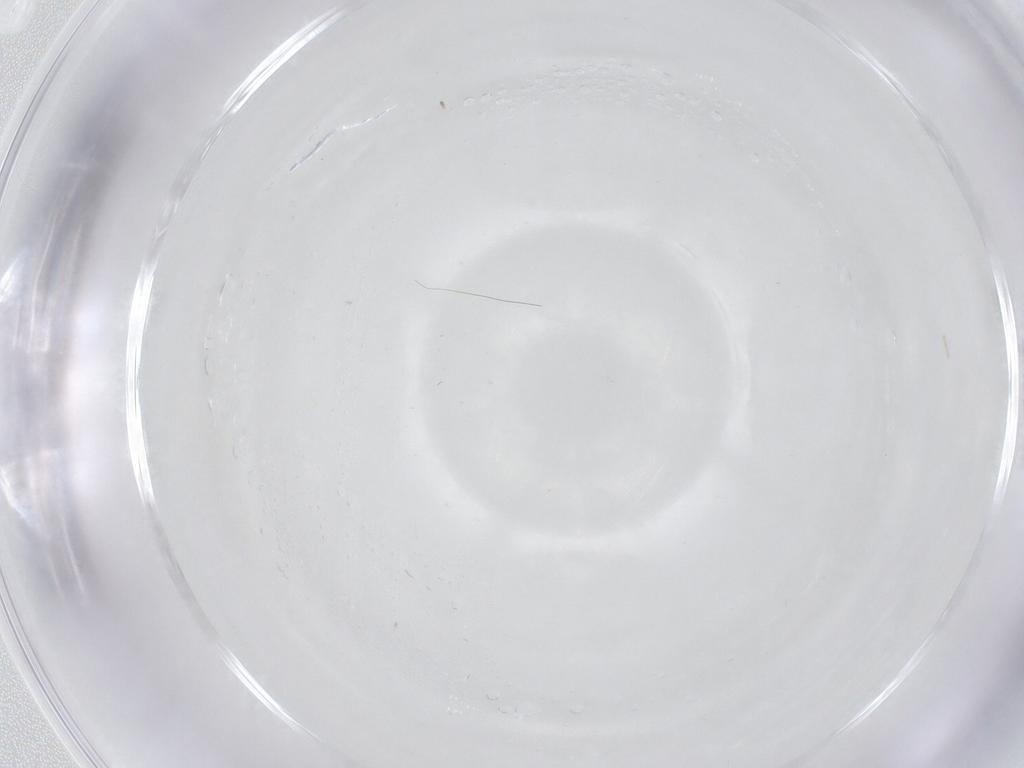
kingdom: Animalia
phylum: Arthropoda
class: Insecta
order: Diptera
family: Chironomidae
